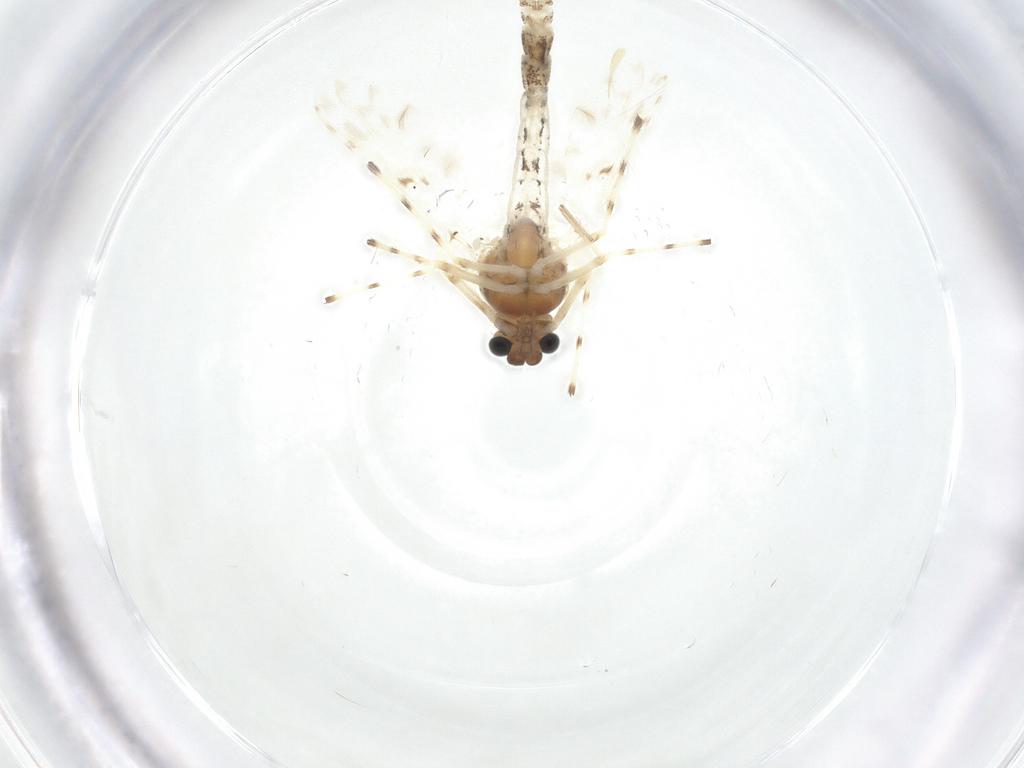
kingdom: Animalia
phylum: Arthropoda
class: Insecta
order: Diptera
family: Chironomidae
